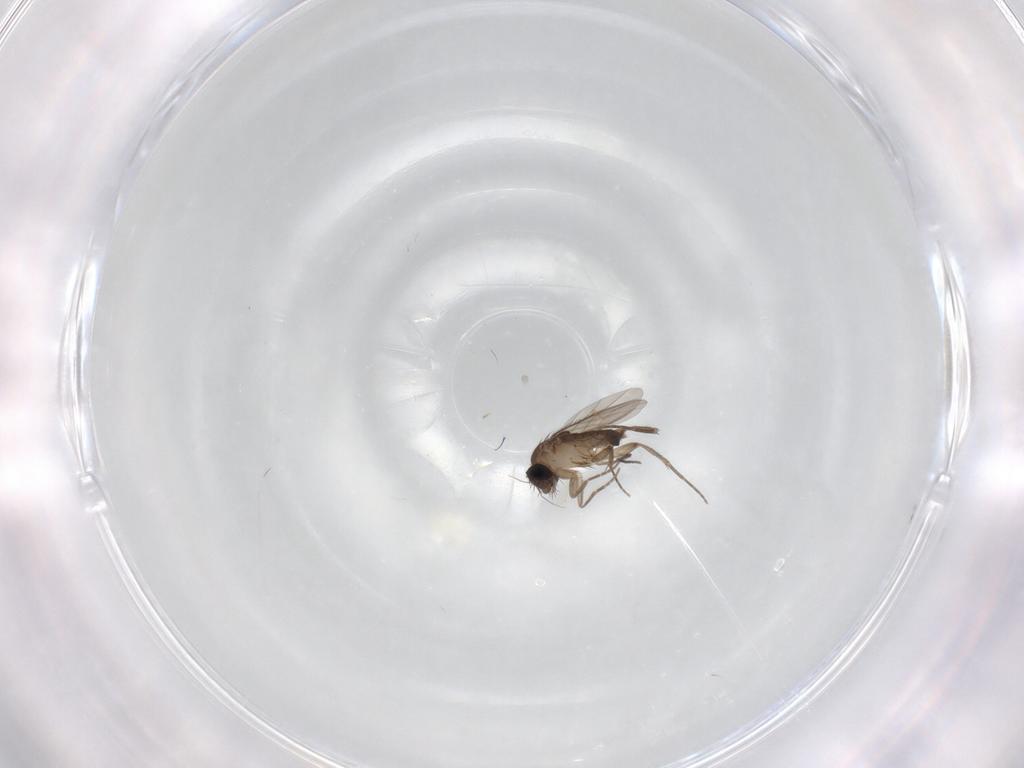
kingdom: Animalia
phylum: Arthropoda
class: Insecta
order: Diptera
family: Phoridae
